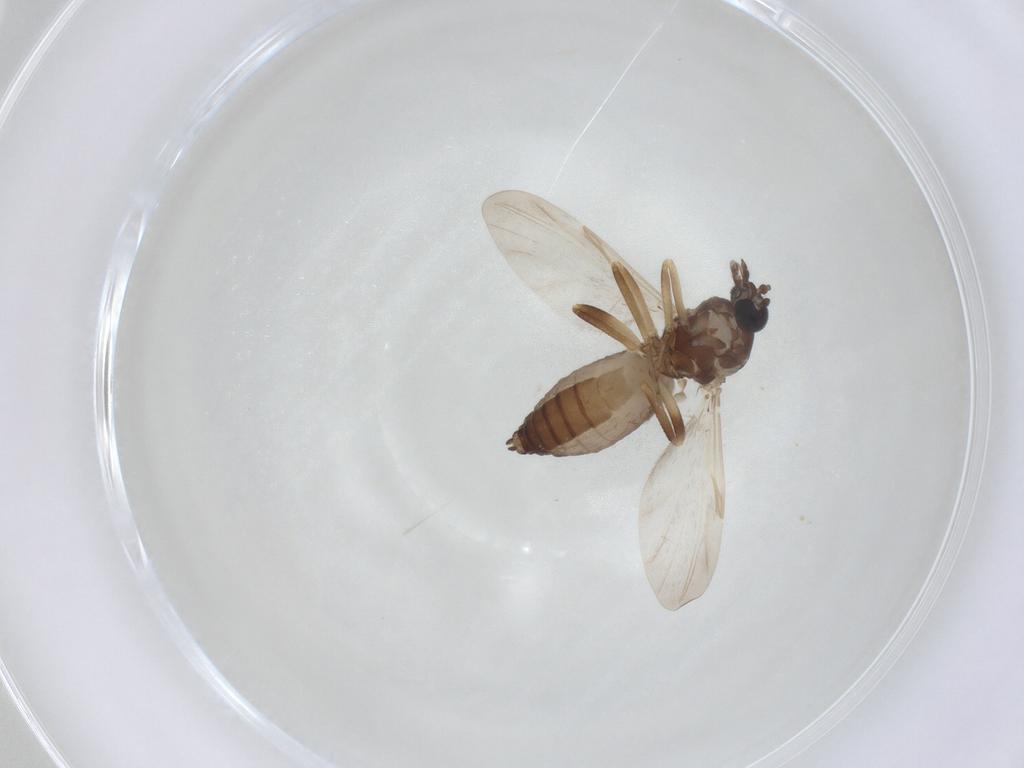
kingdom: Animalia
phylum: Arthropoda
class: Insecta
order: Diptera
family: Ceratopogonidae
